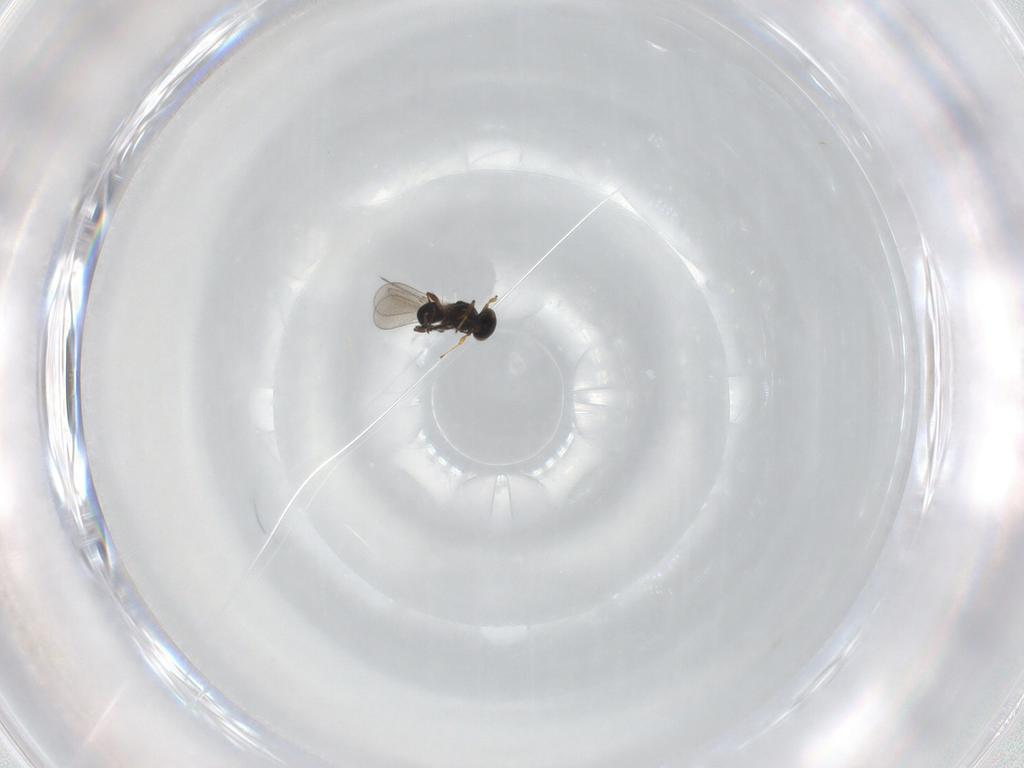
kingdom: Animalia
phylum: Arthropoda
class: Insecta
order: Hymenoptera
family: Platygastridae
